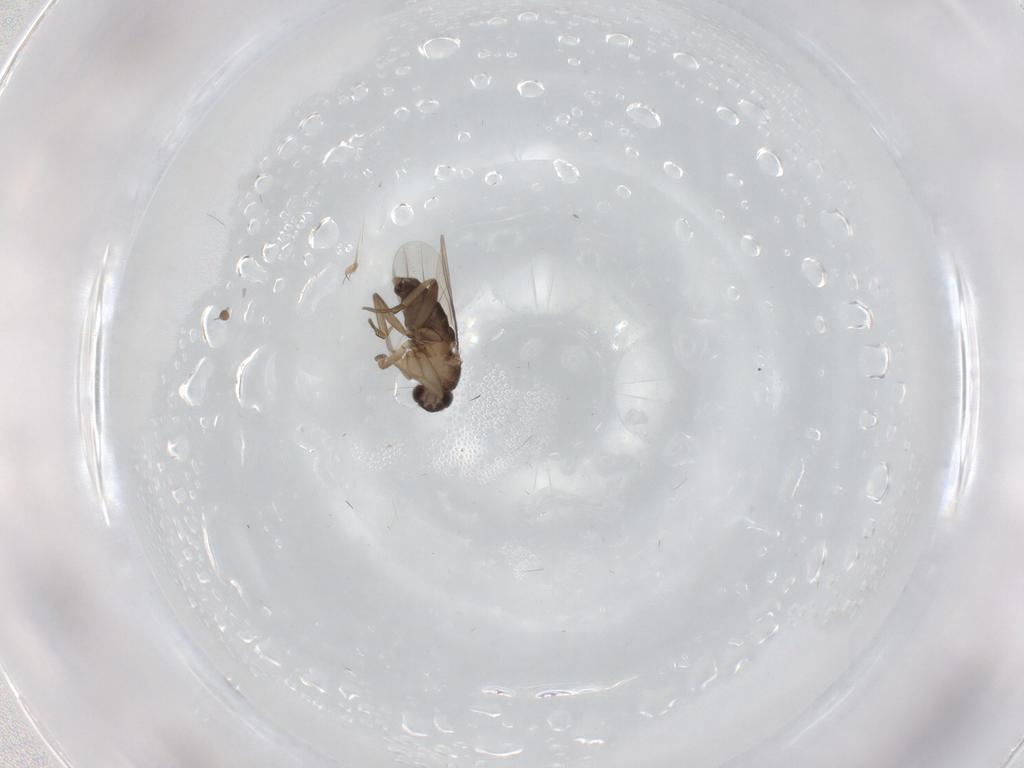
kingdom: Animalia
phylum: Arthropoda
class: Insecta
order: Diptera
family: Phoridae
